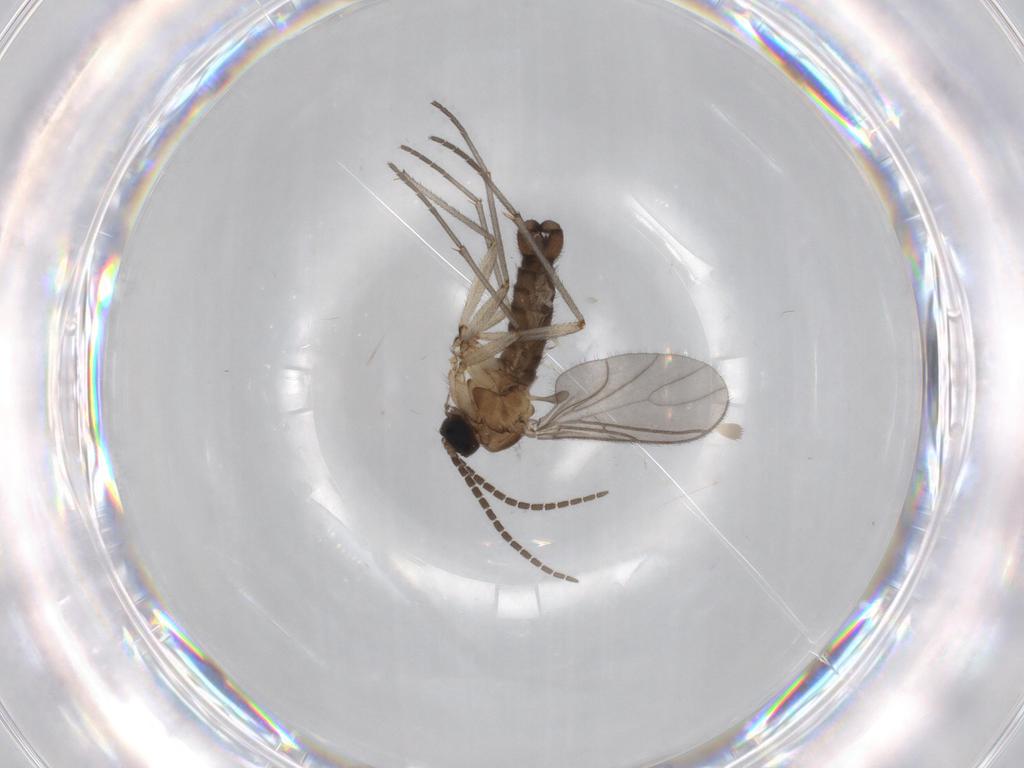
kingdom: Animalia
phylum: Arthropoda
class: Insecta
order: Diptera
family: Sciaridae
